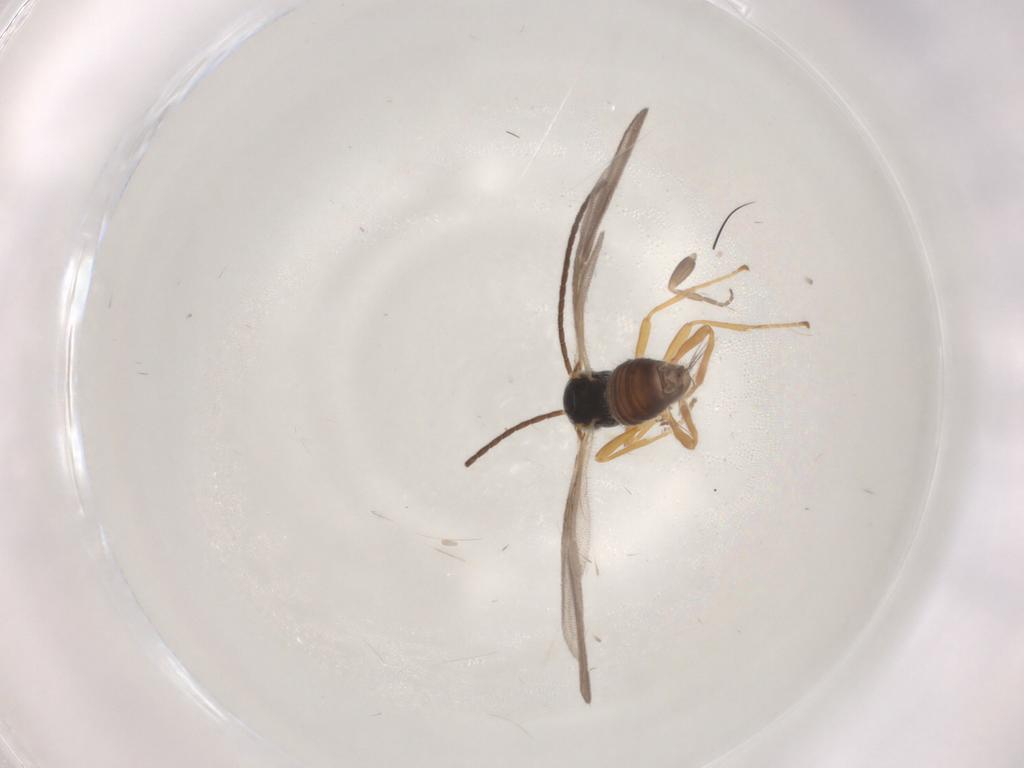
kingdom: Animalia
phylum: Arthropoda
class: Insecta
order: Hymenoptera
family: Braconidae
